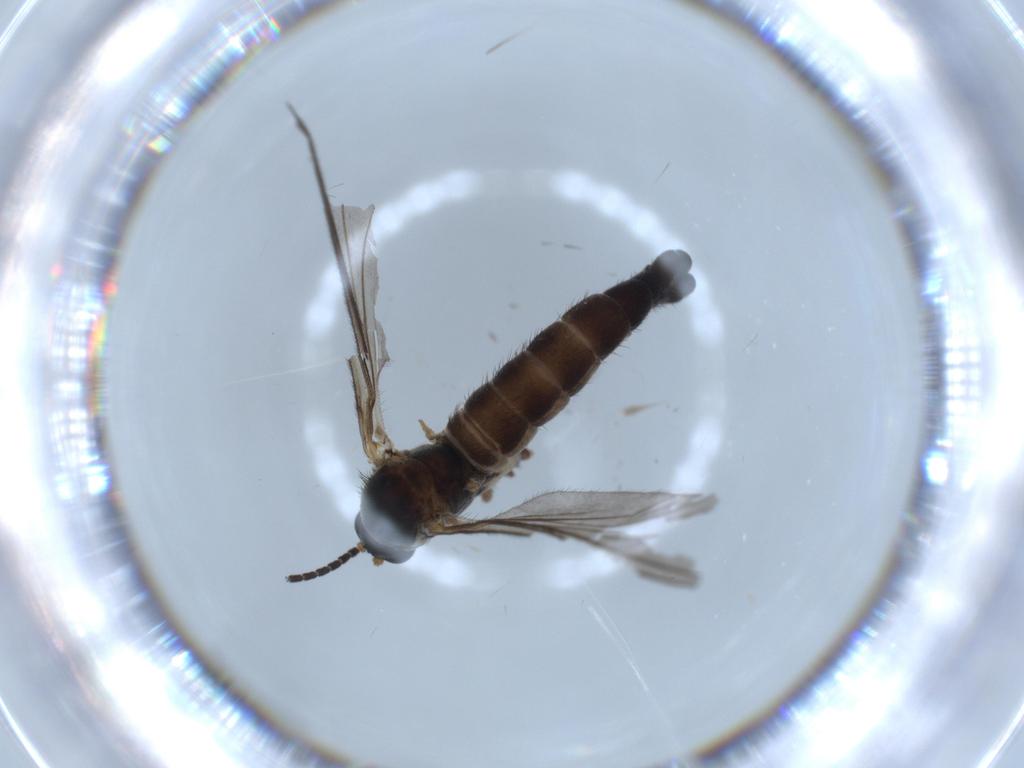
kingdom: Animalia
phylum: Arthropoda
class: Insecta
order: Diptera
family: Sciaridae
